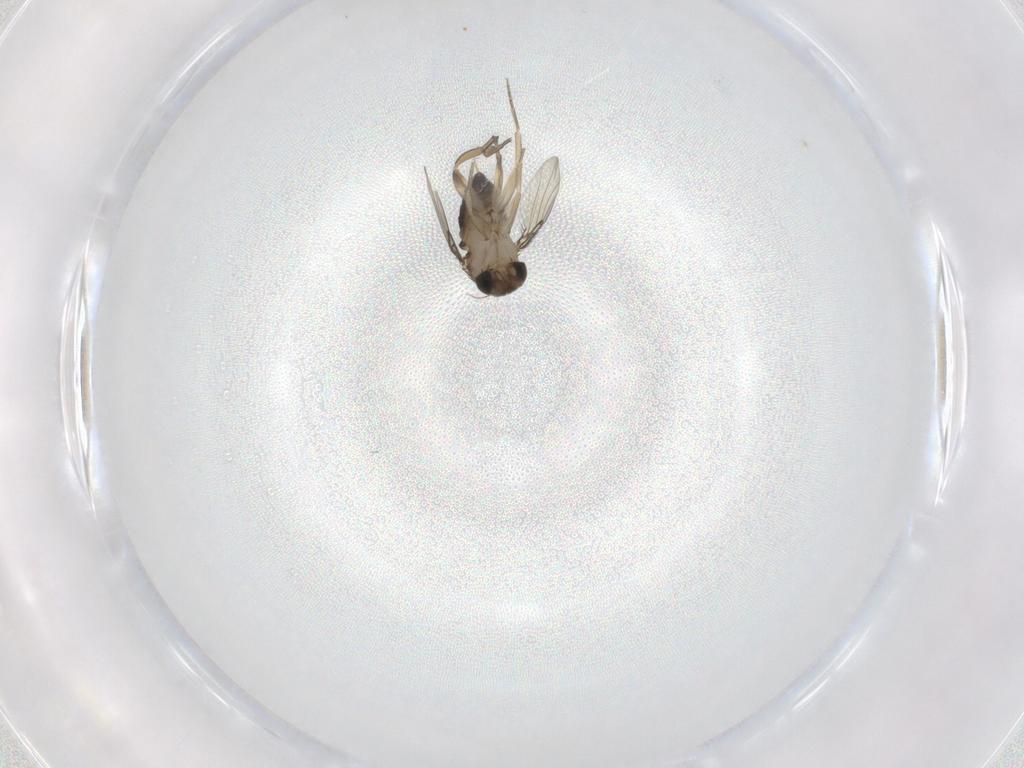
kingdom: Animalia
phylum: Arthropoda
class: Insecta
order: Diptera
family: Phoridae
